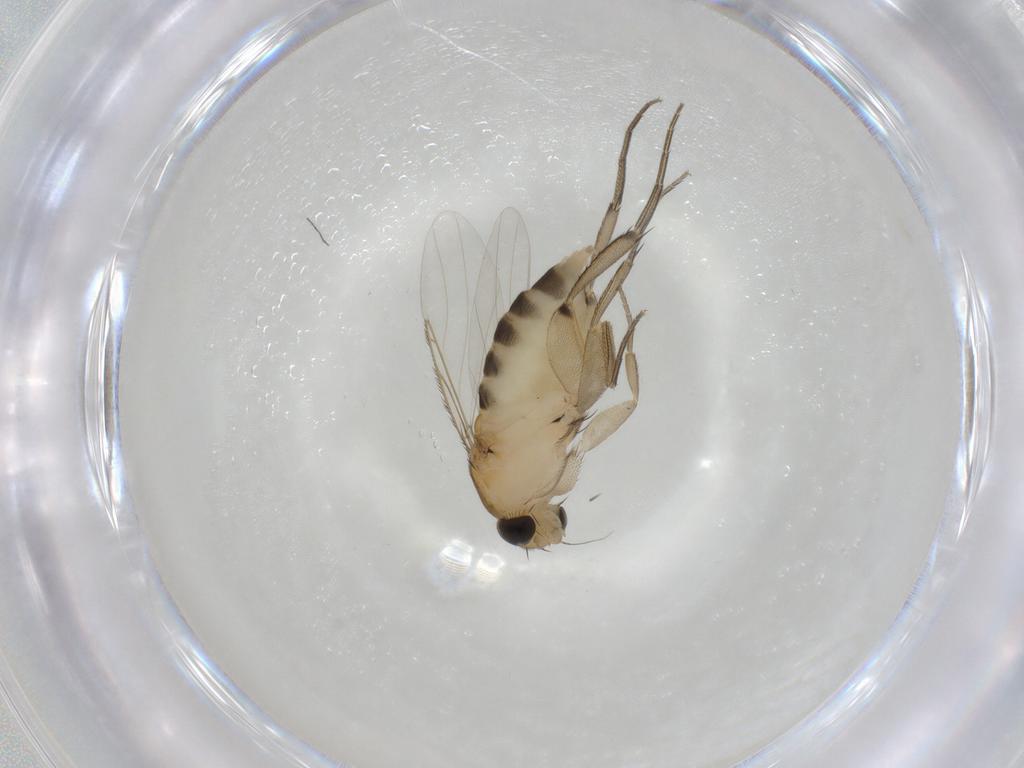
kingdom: Animalia
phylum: Arthropoda
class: Insecta
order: Diptera
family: Phoridae
